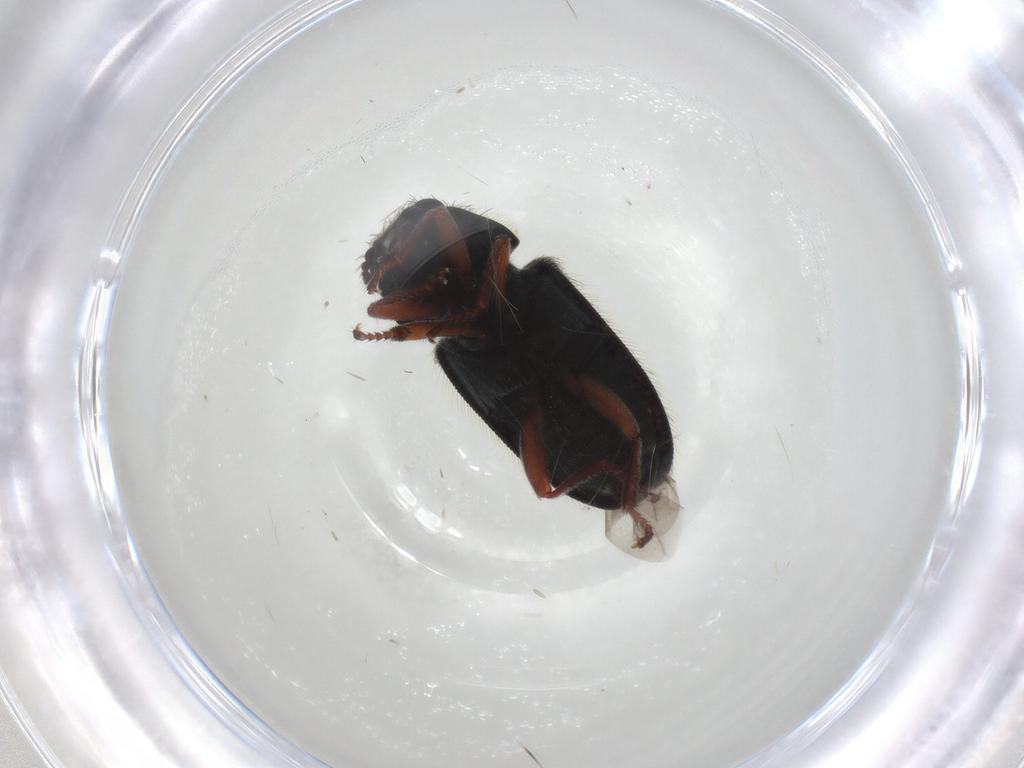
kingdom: Animalia
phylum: Arthropoda
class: Insecta
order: Coleoptera
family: Melyridae
